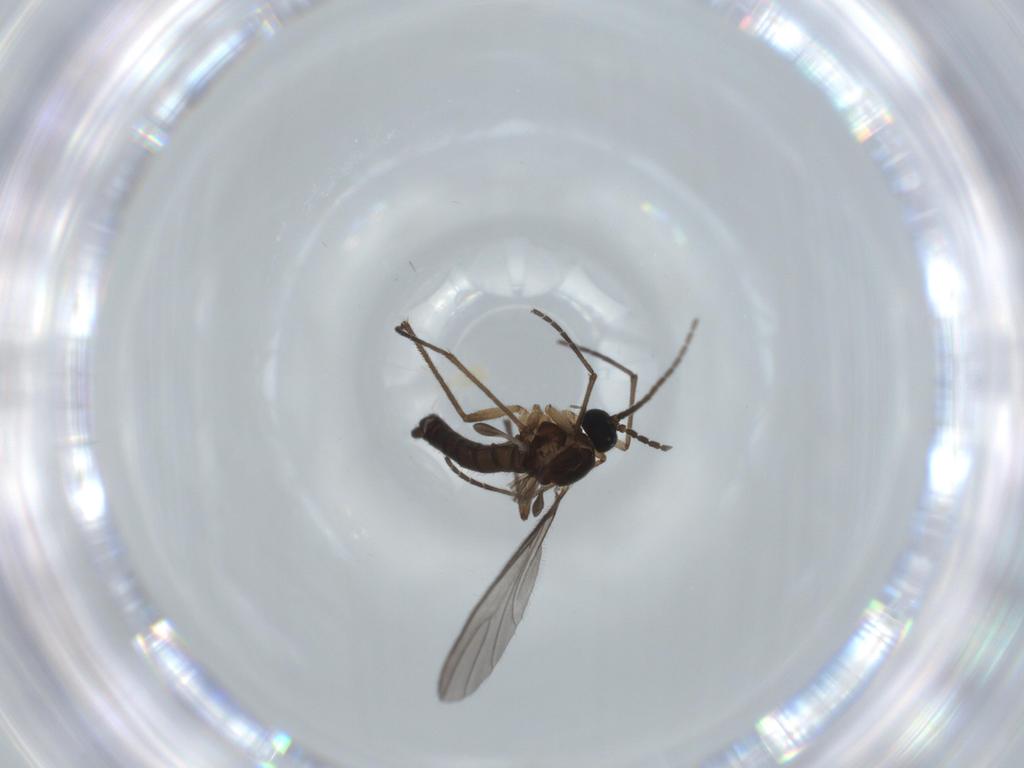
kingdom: Animalia
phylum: Arthropoda
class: Insecta
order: Diptera
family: Sciaridae
